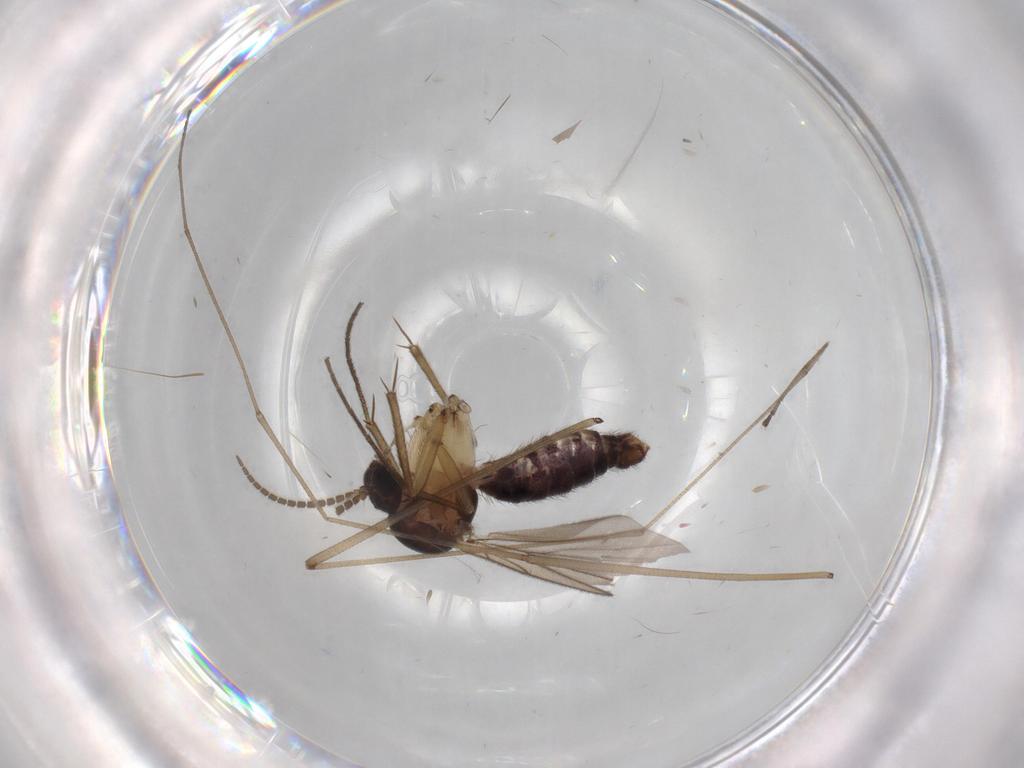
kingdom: Animalia
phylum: Arthropoda
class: Insecta
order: Diptera
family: Limoniidae
